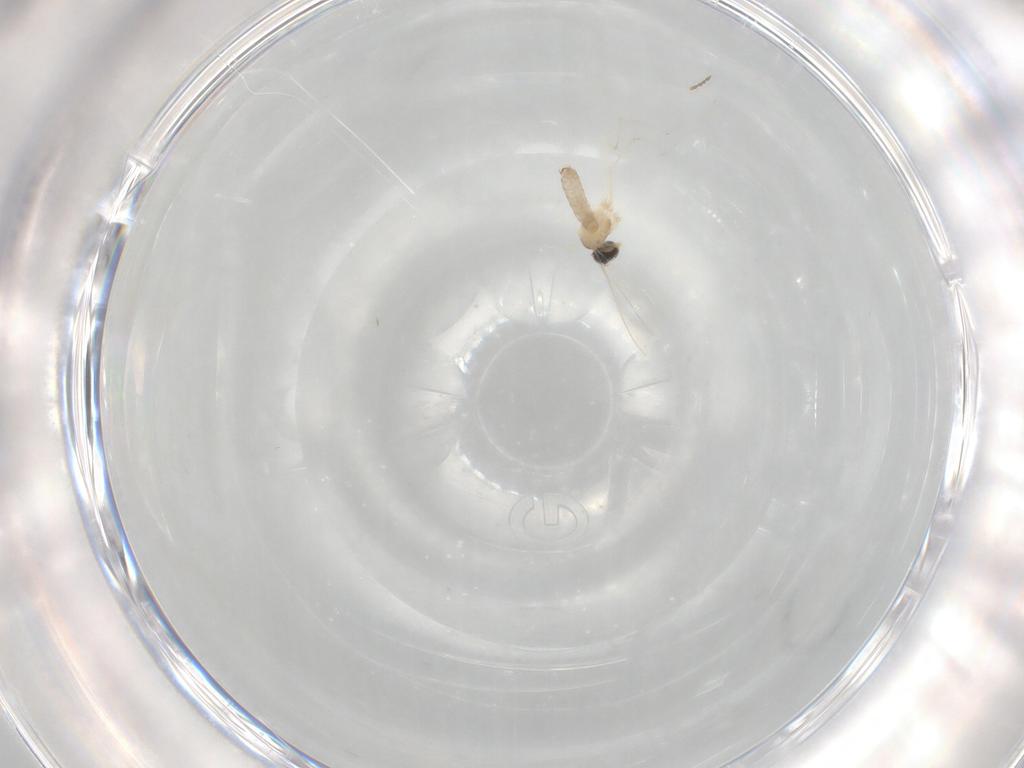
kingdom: Animalia
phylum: Arthropoda
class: Insecta
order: Diptera
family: Cecidomyiidae
